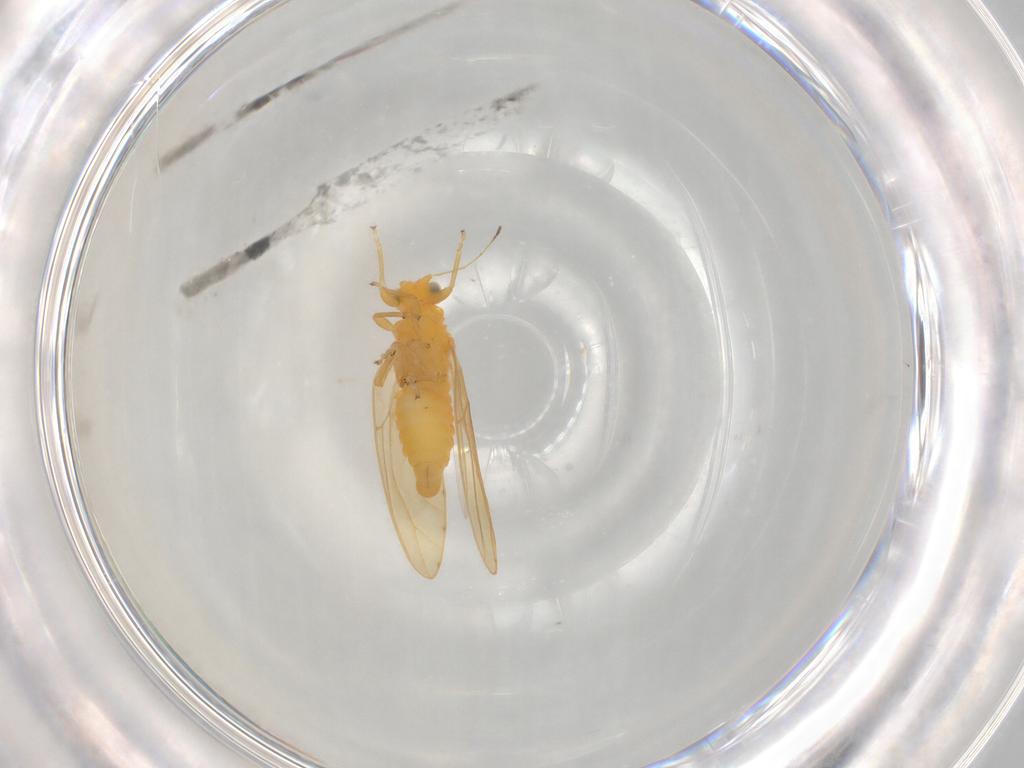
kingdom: Animalia
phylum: Arthropoda
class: Insecta
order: Hemiptera
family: Triozidae
